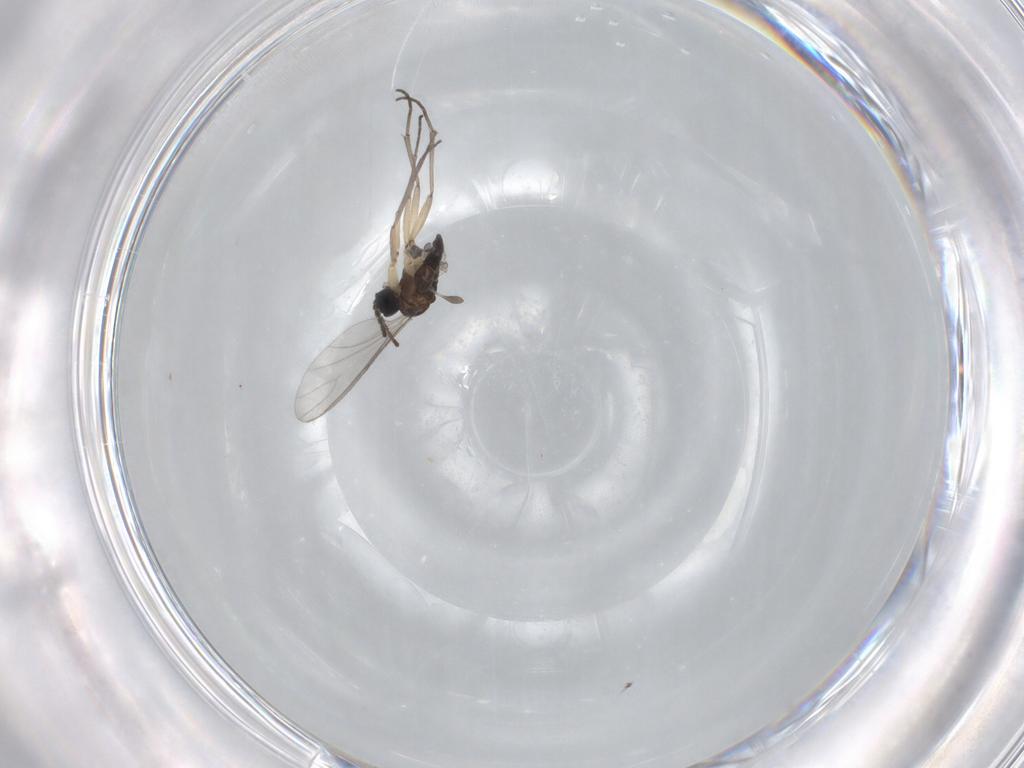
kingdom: Animalia
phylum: Arthropoda
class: Insecta
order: Diptera
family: Sciaridae
